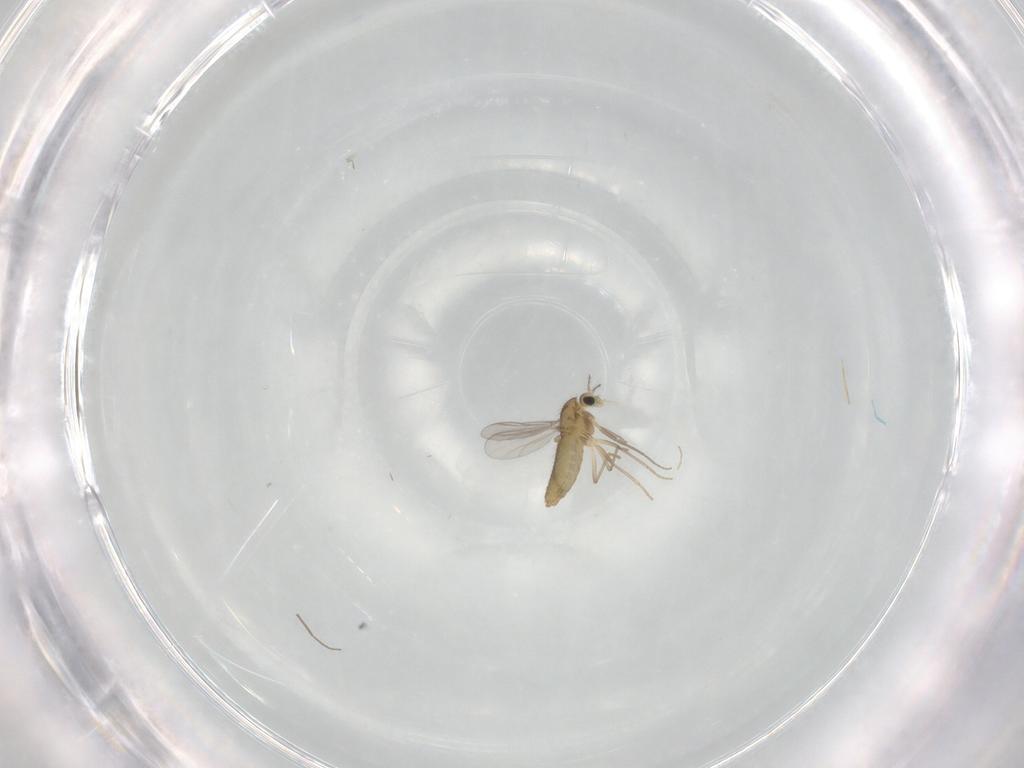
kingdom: Animalia
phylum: Arthropoda
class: Insecta
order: Diptera
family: Chironomidae
